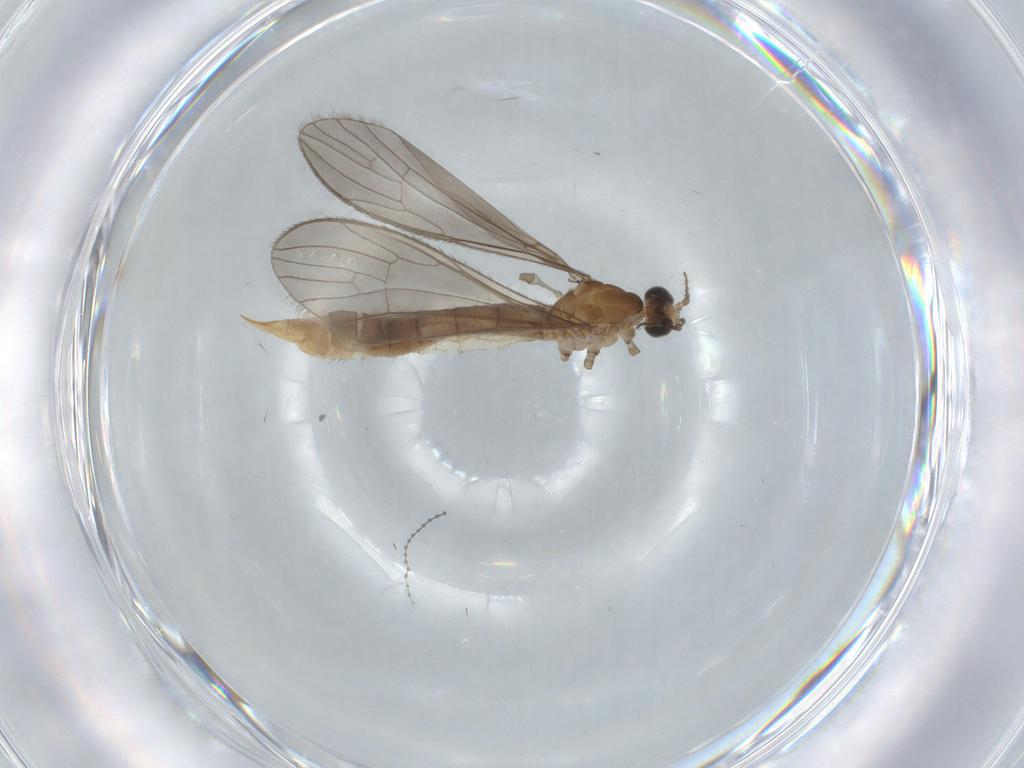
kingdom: Animalia
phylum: Arthropoda
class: Insecta
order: Diptera
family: Limoniidae
